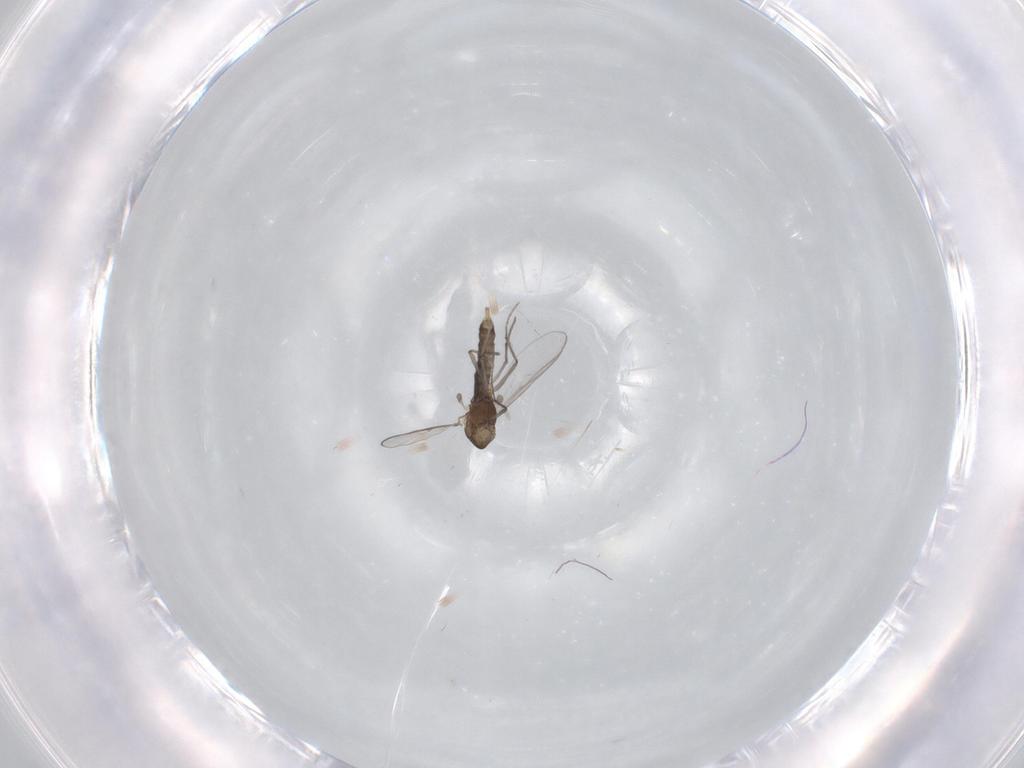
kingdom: Animalia
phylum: Arthropoda
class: Insecta
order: Diptera
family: Chironomidae
